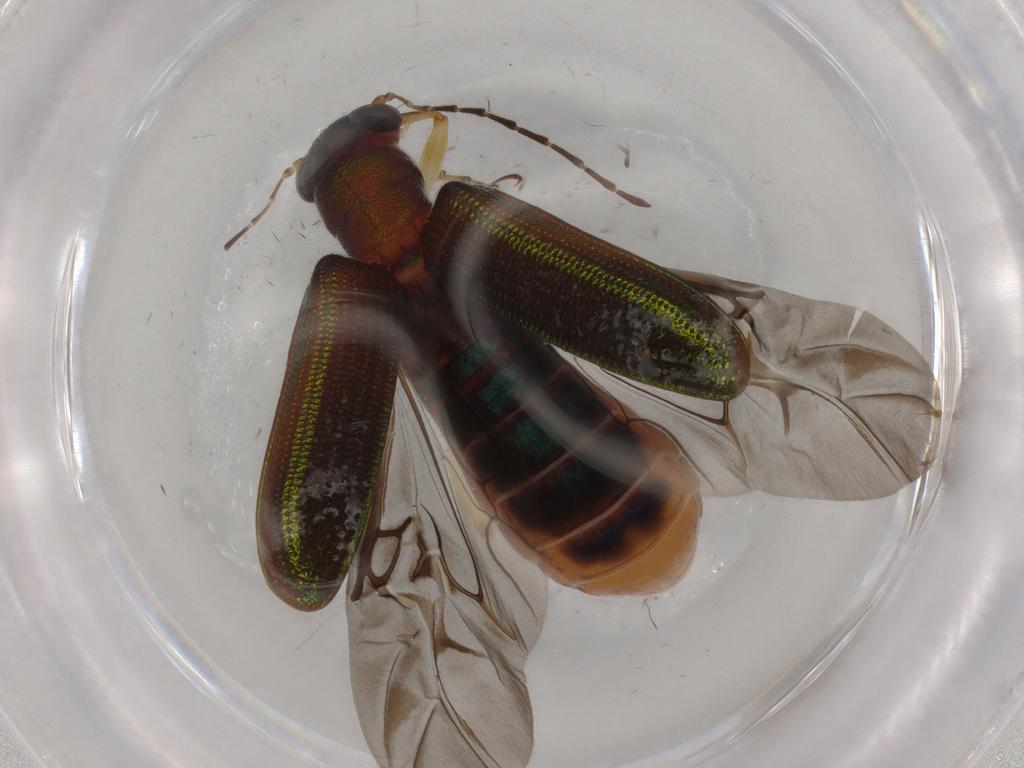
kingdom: Animalia
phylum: Arthropoda
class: Insecta
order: Coleoptera
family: Chrysomelidae
